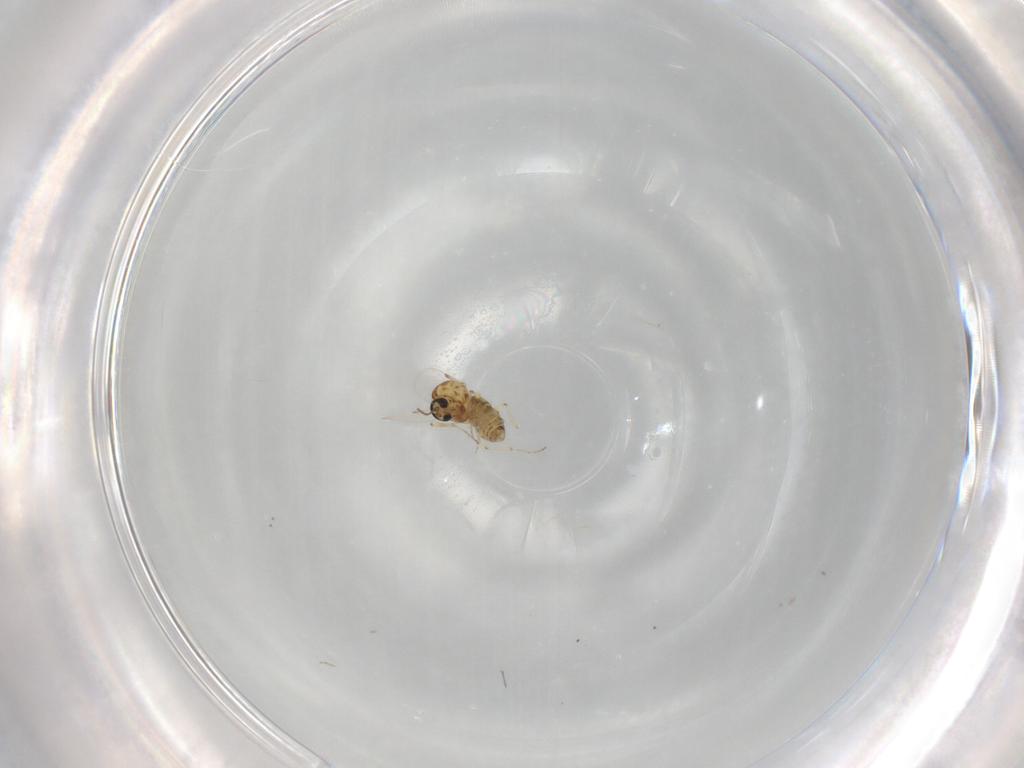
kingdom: Animalia
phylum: Arthropoda
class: Insecta
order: Diptera
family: Ceratopogonidae
